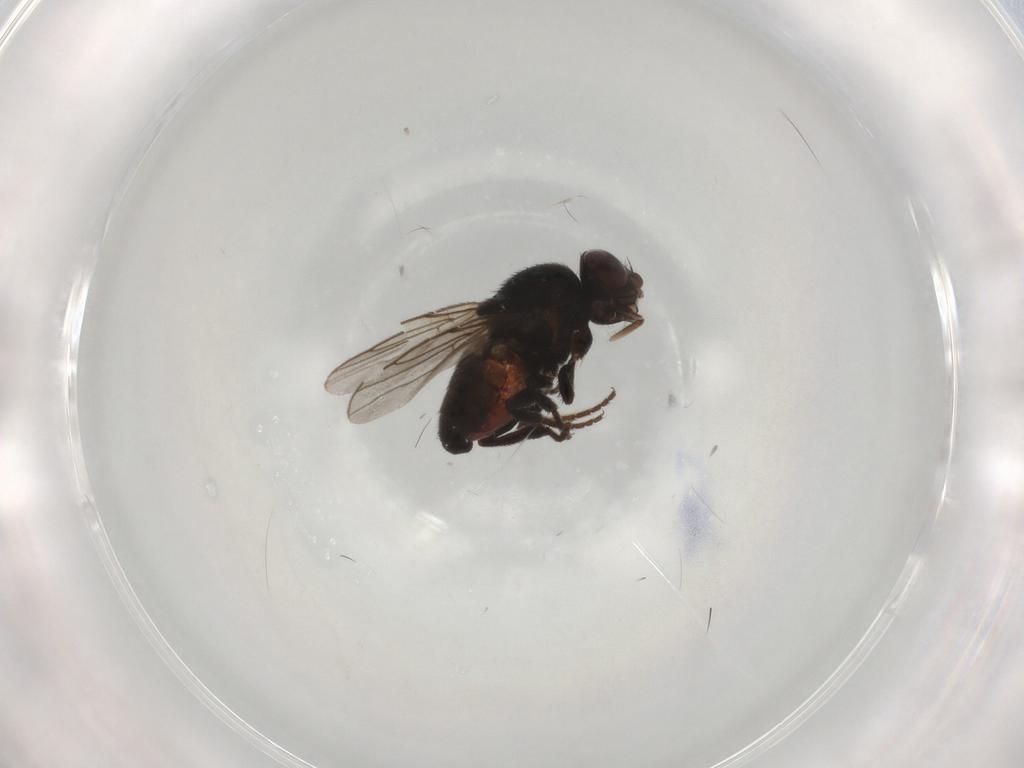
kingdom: Animalia
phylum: Arthropoda
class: Insecta
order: Diptera
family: Chloropidae
